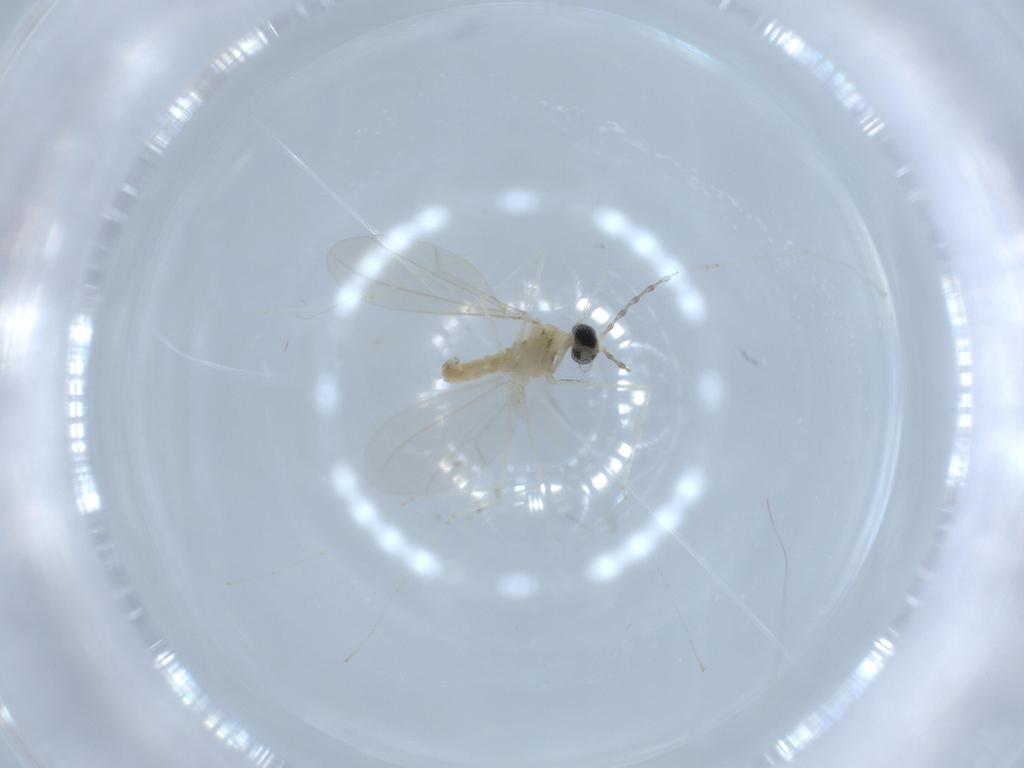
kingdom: Animalia
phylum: Arthropoda
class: Insecta
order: Diptera
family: Cecidomyiidae
